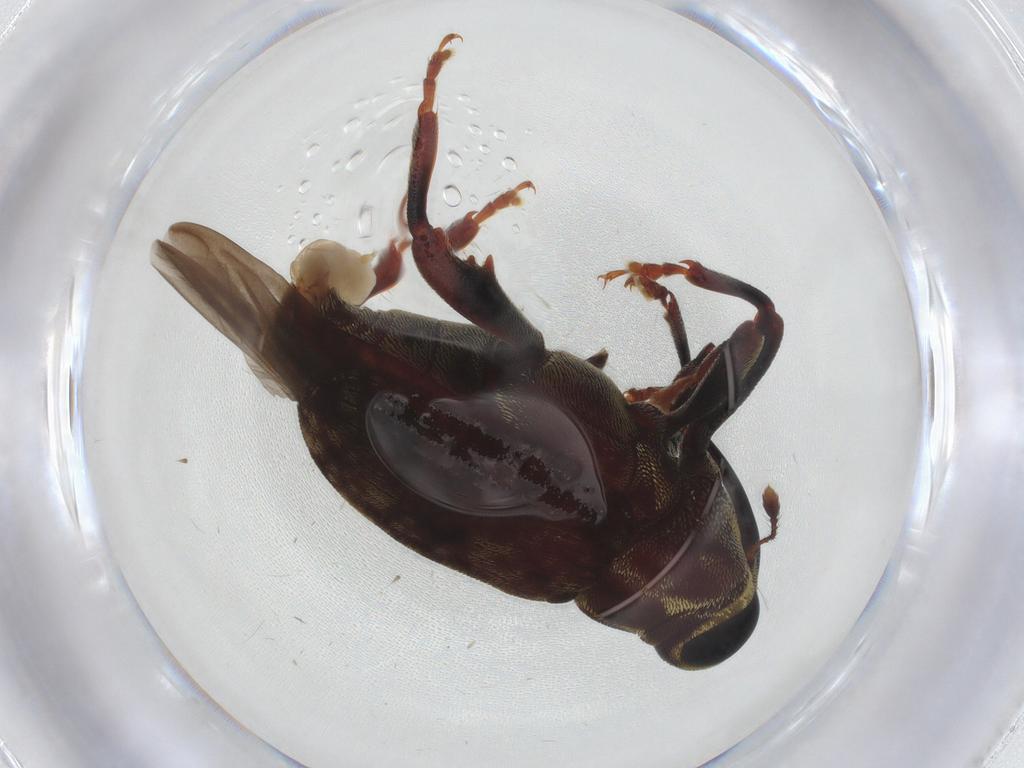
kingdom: Animalia
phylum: Arthropoda
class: Insecta
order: Coleoptera
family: Curculionidae
